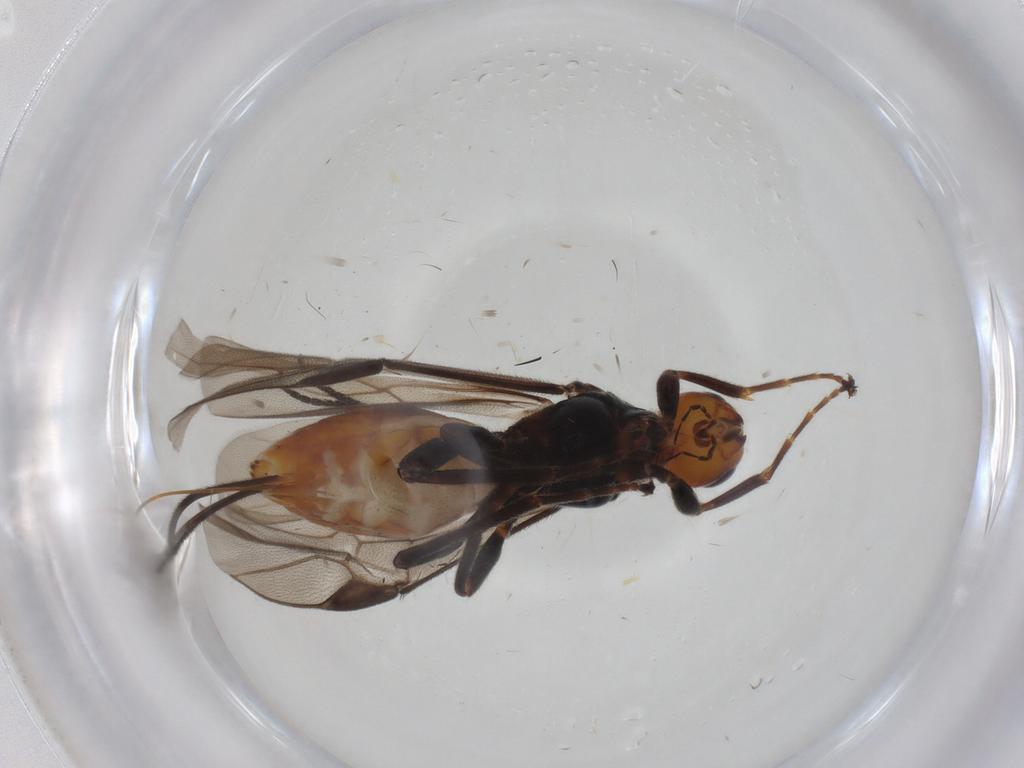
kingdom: Animalia
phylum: Arthropoda
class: Insecta
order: Hymenoptera
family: Braconidae
